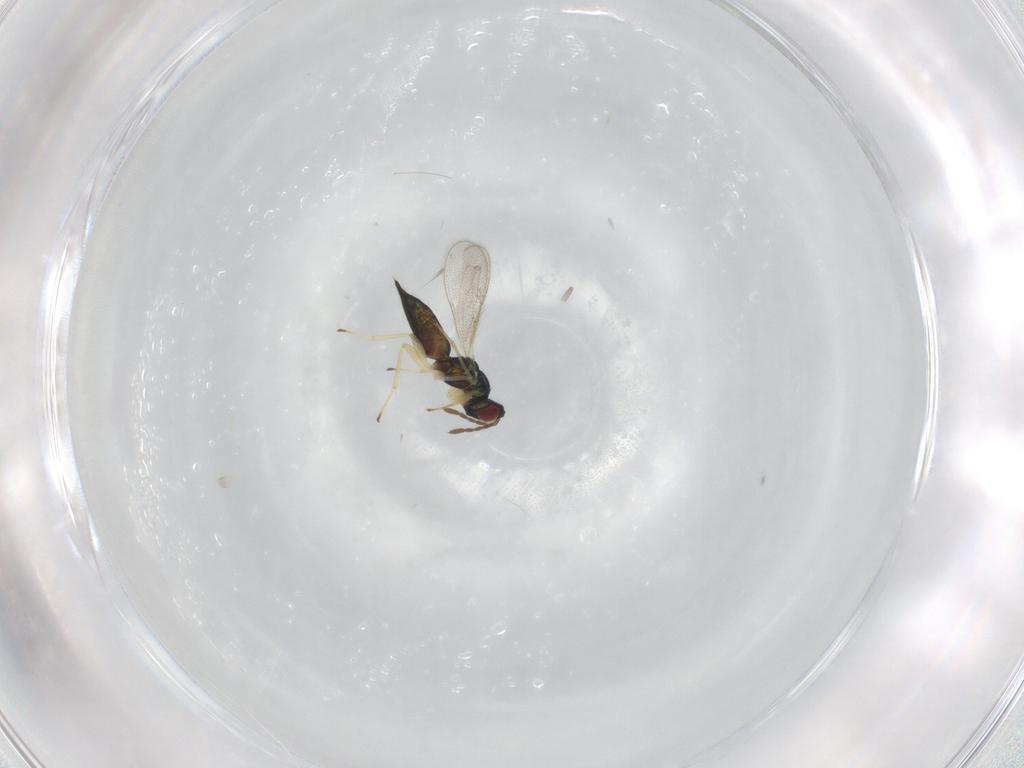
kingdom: Animalia
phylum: Arthropoda
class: Insecta
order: Hymenoptera
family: Eulophidae
